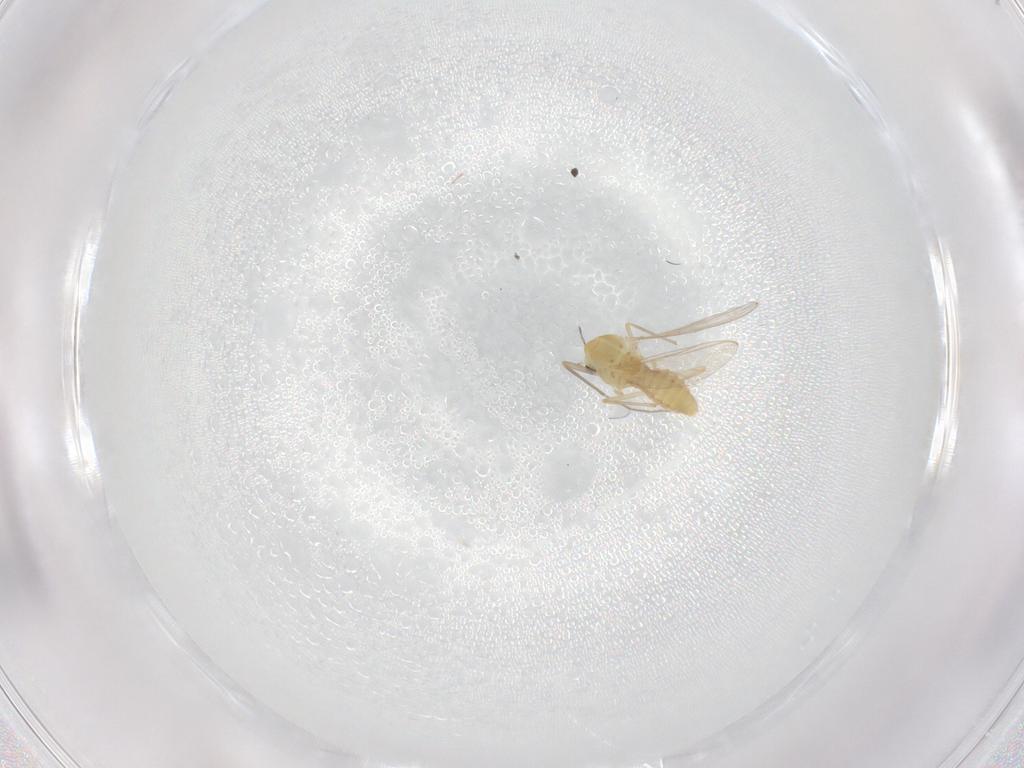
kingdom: Animalia
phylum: Arthropoda
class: Insecta
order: Diptera
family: Chironomidae
